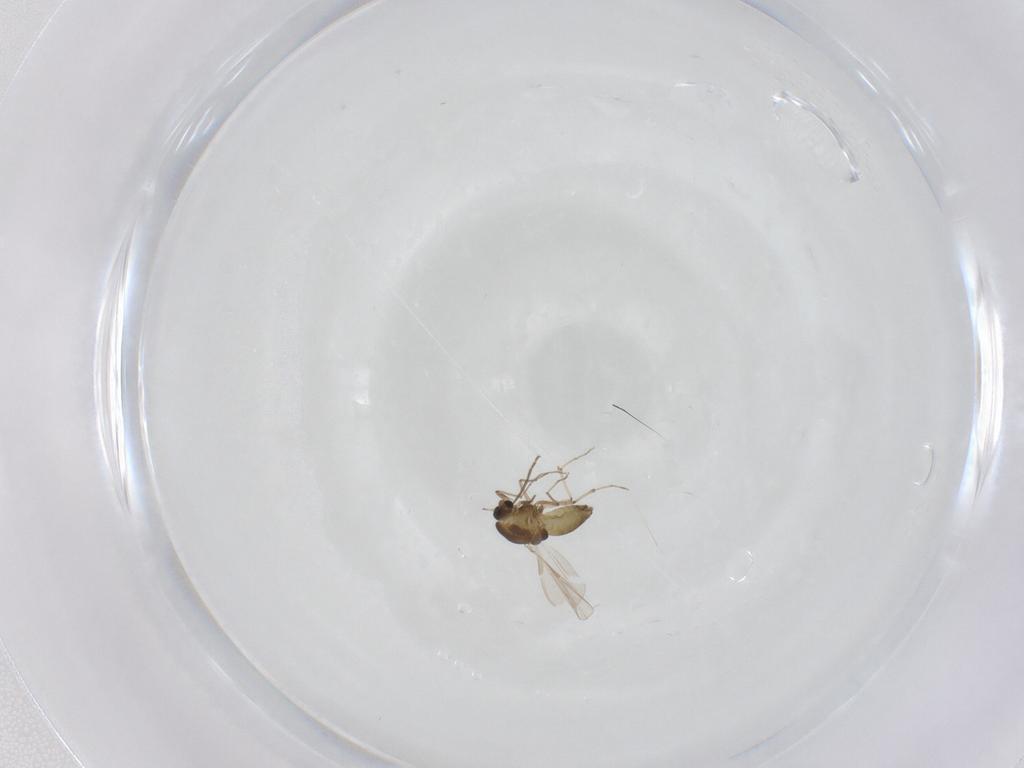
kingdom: Animalia
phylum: Arthropoda
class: Insecta
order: Diptera
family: Chironomidae
